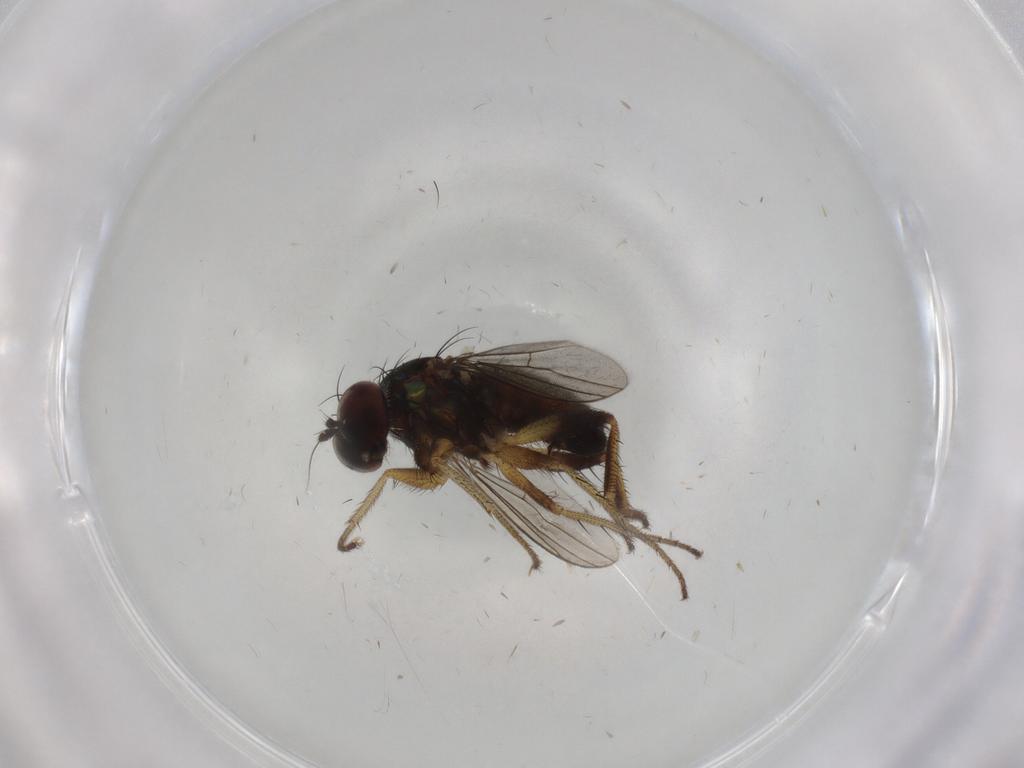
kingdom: Animalia
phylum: Arthropoda
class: Insecta
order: Diptera
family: Dolichopodidae
